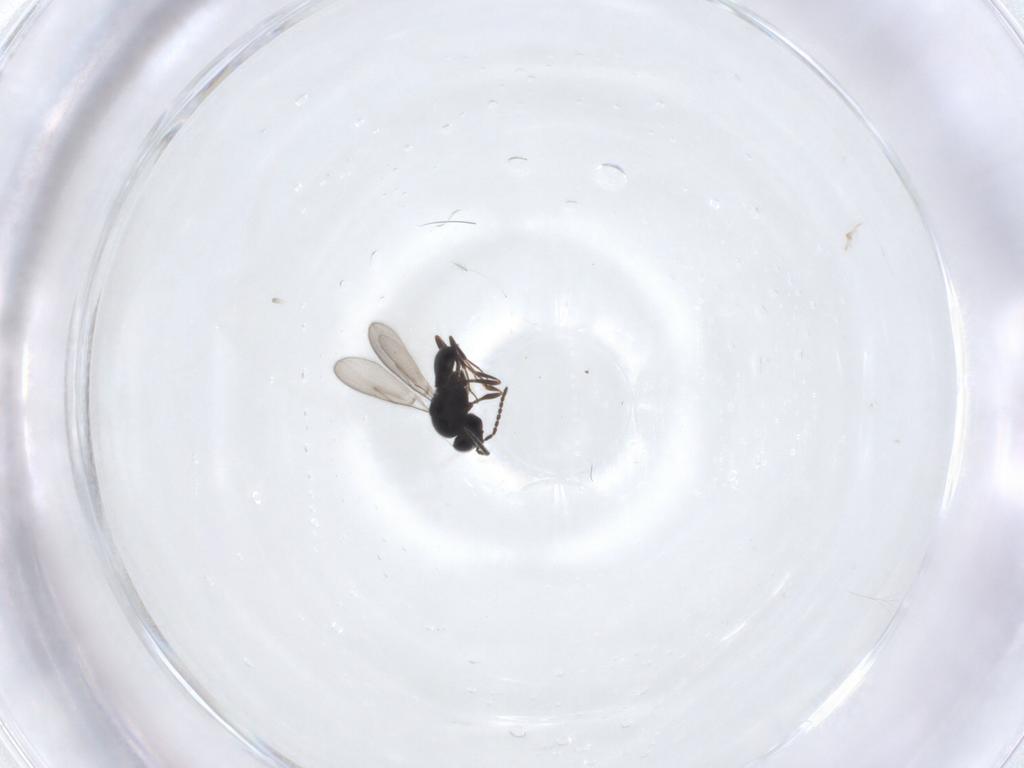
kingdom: Animalia
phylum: Arthropoda
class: Insecta
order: Hymenoptera
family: Scelionidae
